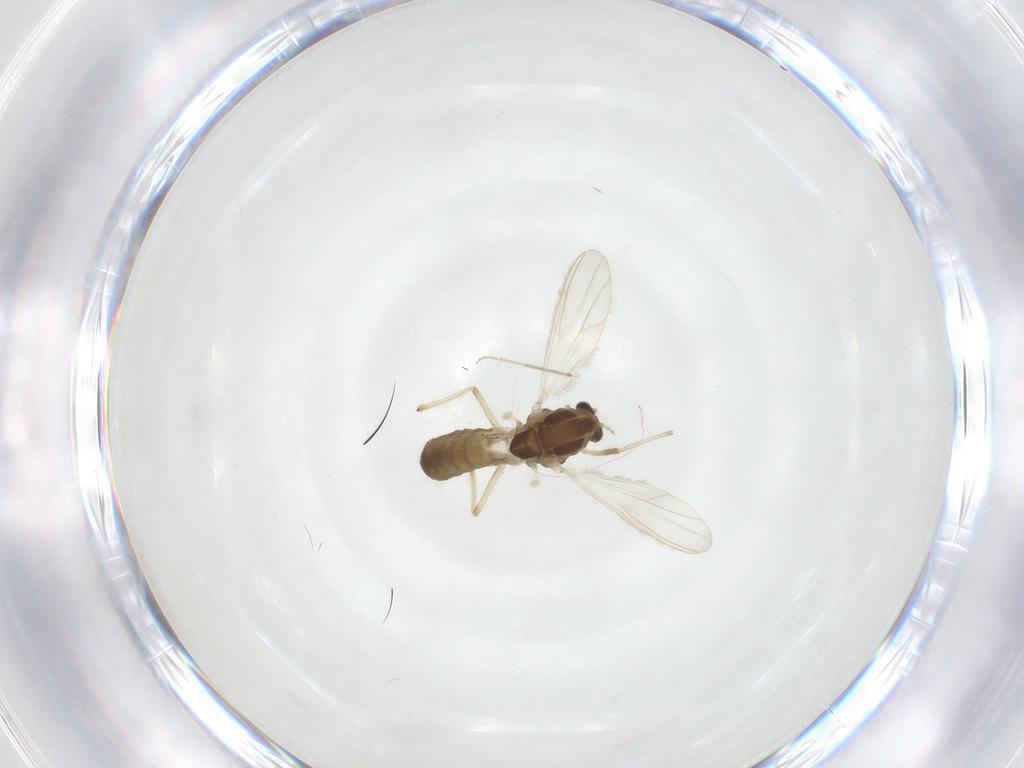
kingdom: Animalia
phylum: Arthropoda
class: Insecta
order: Diptera
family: Chironomidae
